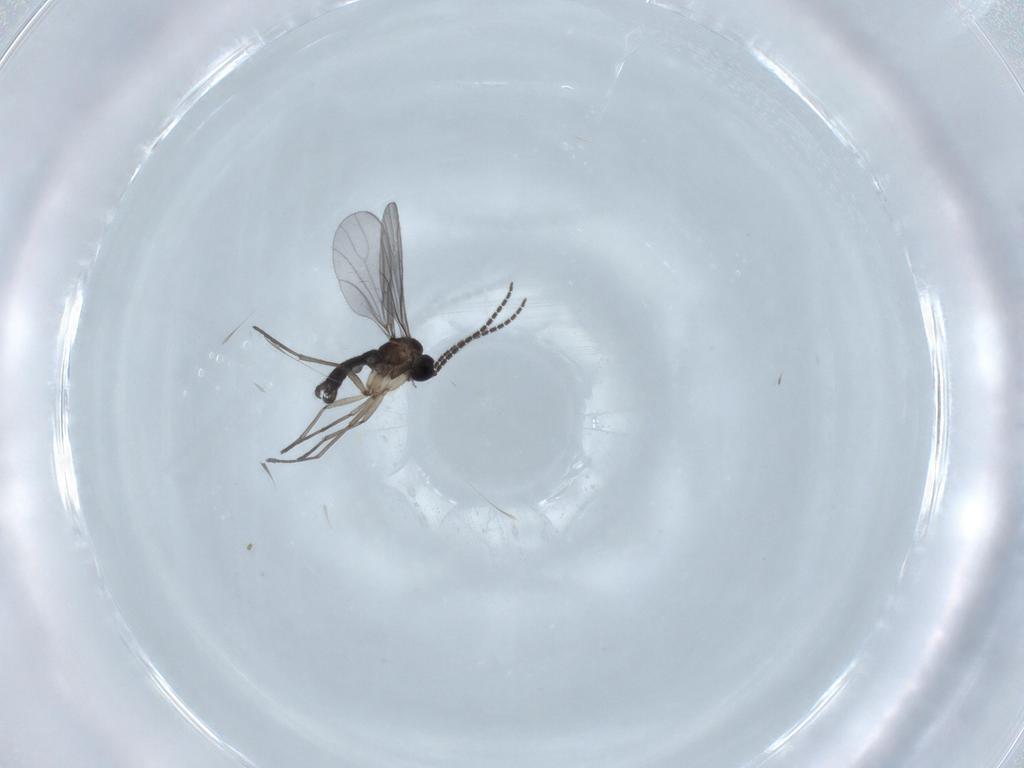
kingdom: Animalia
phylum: Arthropoda
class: Insecta
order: Diptera
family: Sciaridae
